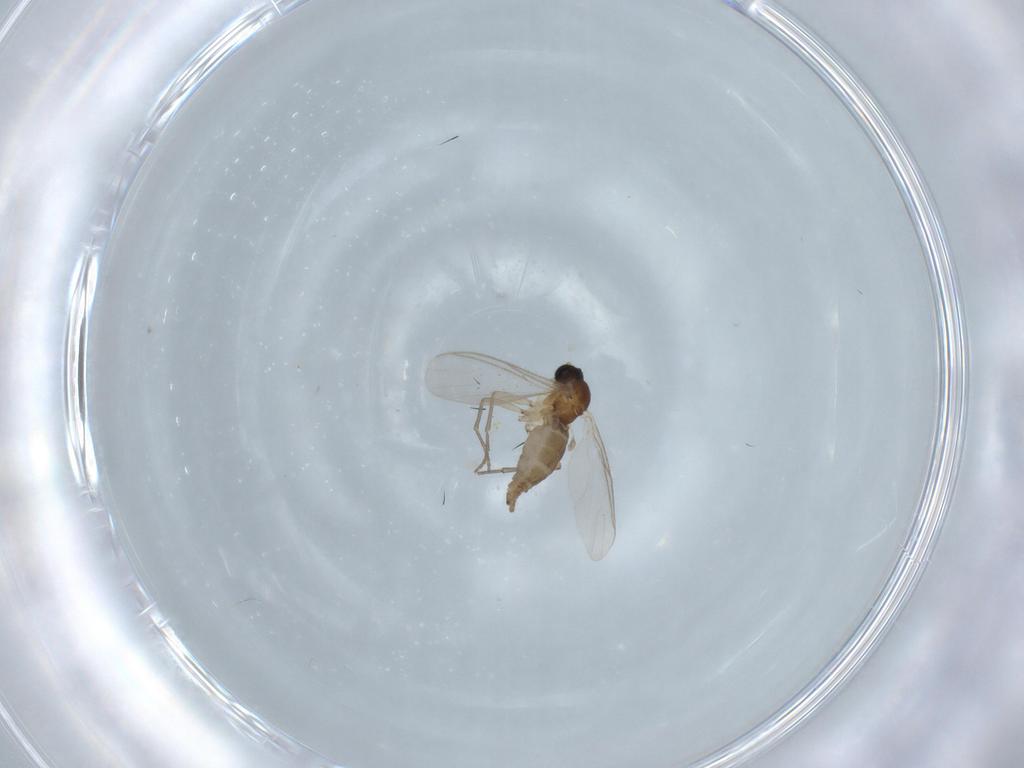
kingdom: Animalia
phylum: Arthropoda
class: Insecta
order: Diptera
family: Sciaridae
